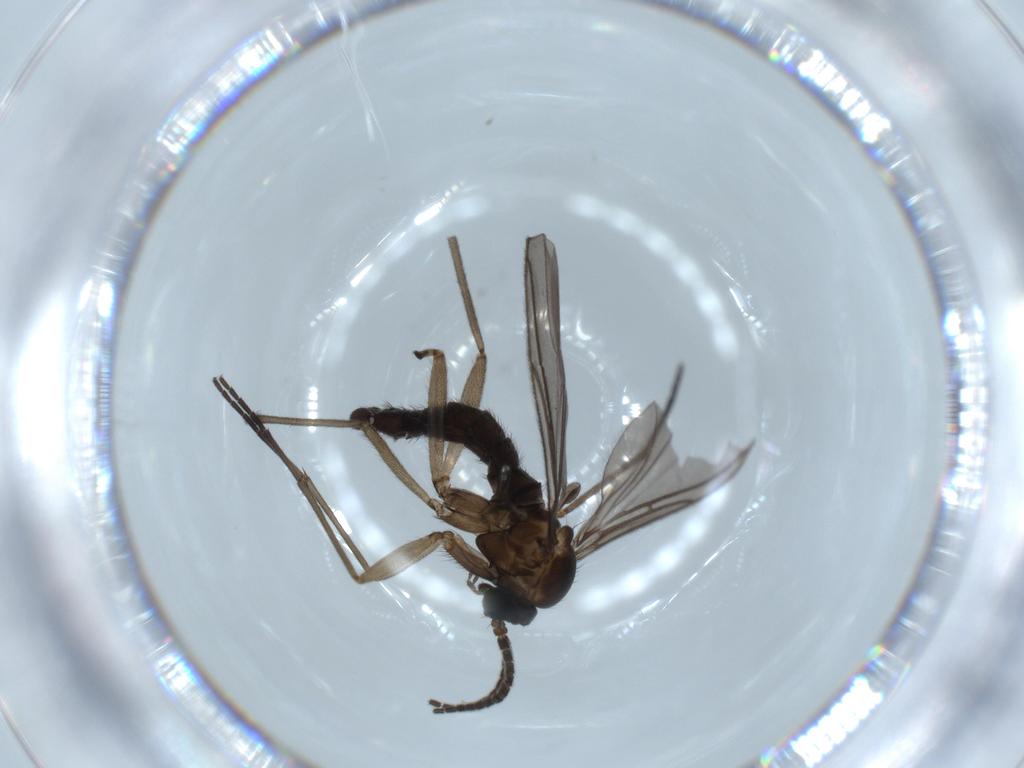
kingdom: Animalia
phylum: Arthropoda
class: Insecta
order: Diptera
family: Sciaridae
